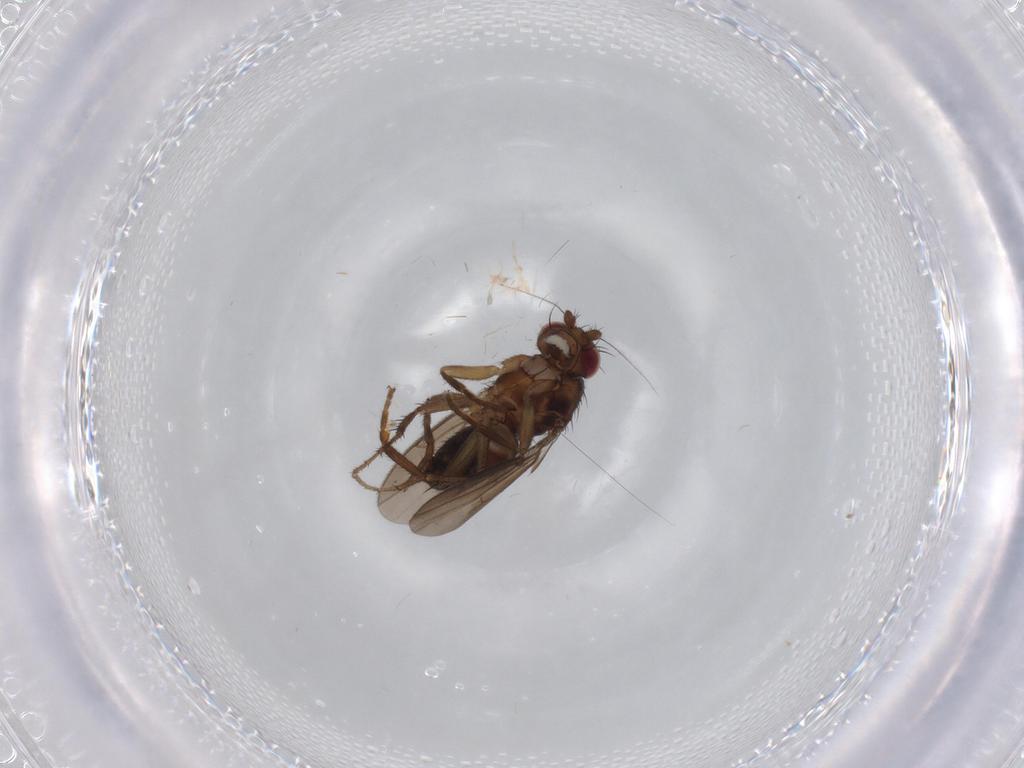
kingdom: Animalia
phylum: Arthropoda
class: Insecta
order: Diptera
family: Sphaeroceridae
